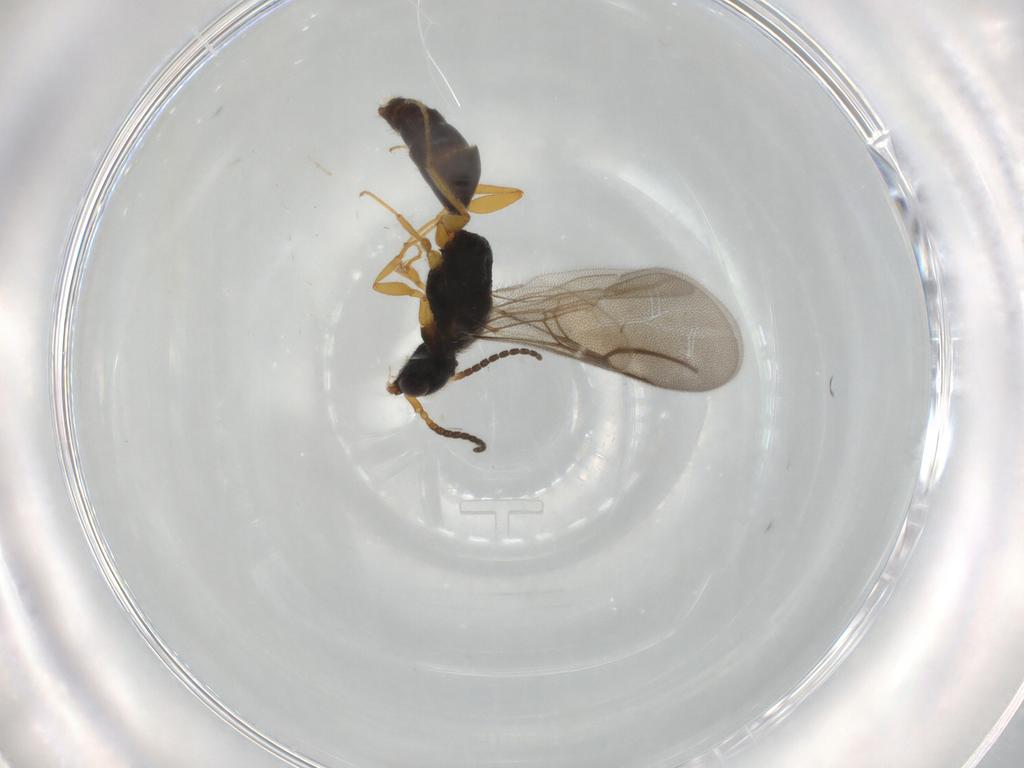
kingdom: Animalia
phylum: Arthropoda
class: Insecta
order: Hymenoptera
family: Bethylidae
